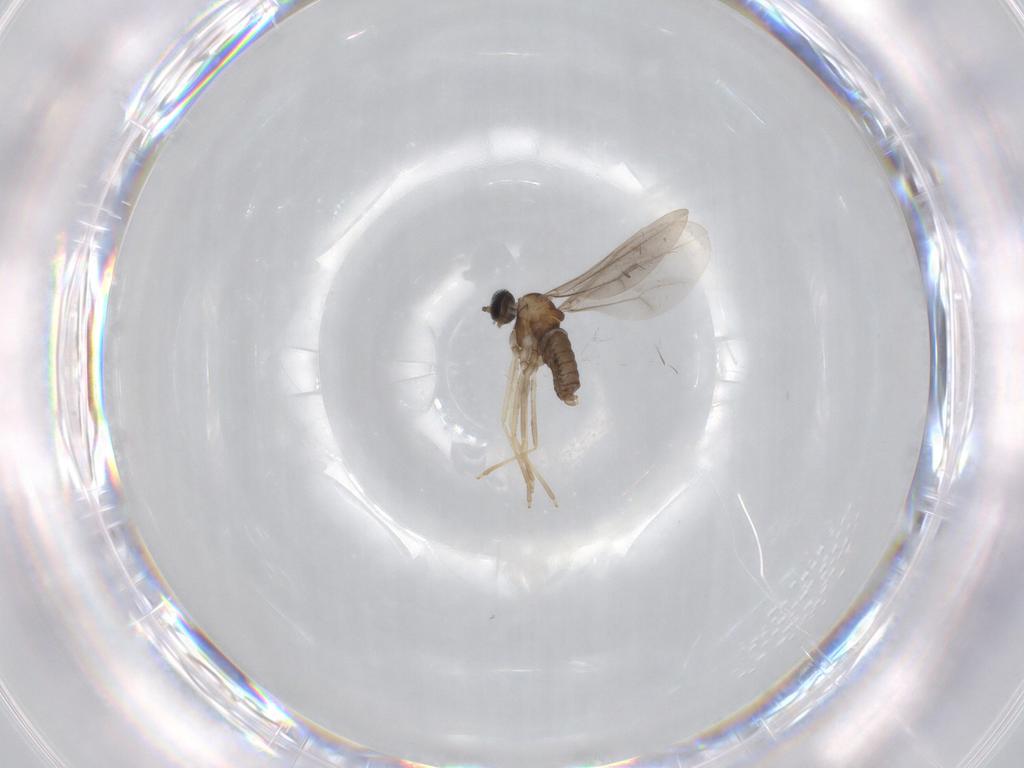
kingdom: Animalia
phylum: Arthropoda
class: Insecta
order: Diptera
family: Cecidomyiidae
